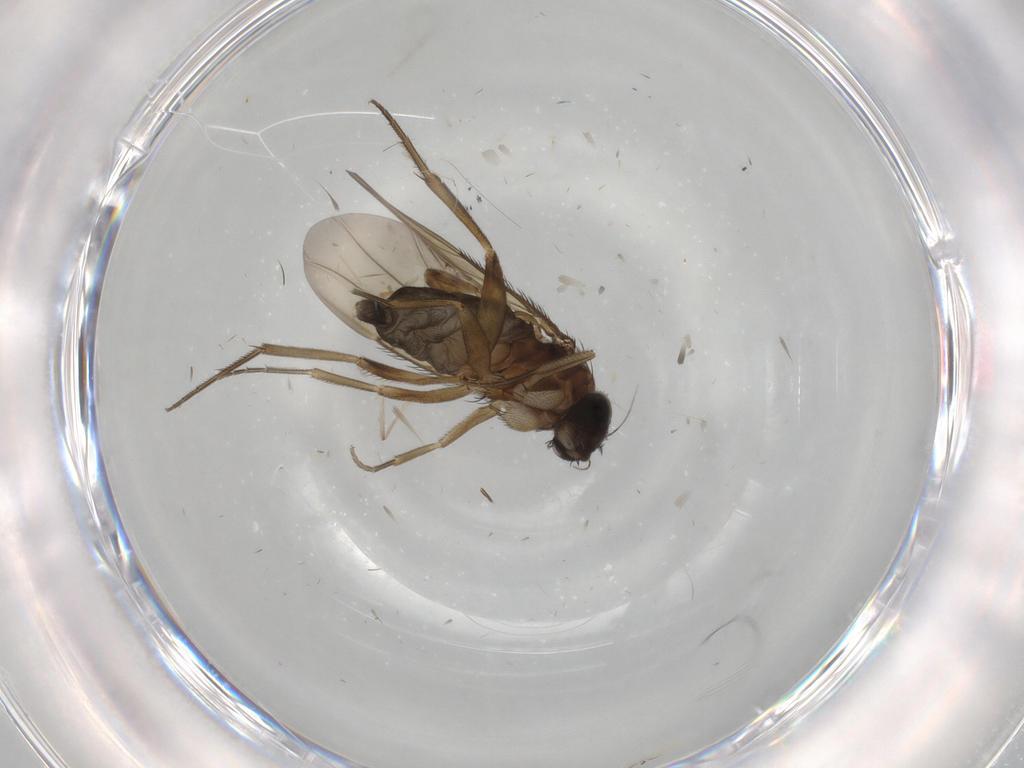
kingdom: Animalia
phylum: Arthropoda
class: Insecta
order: Diptera
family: Phoridae
